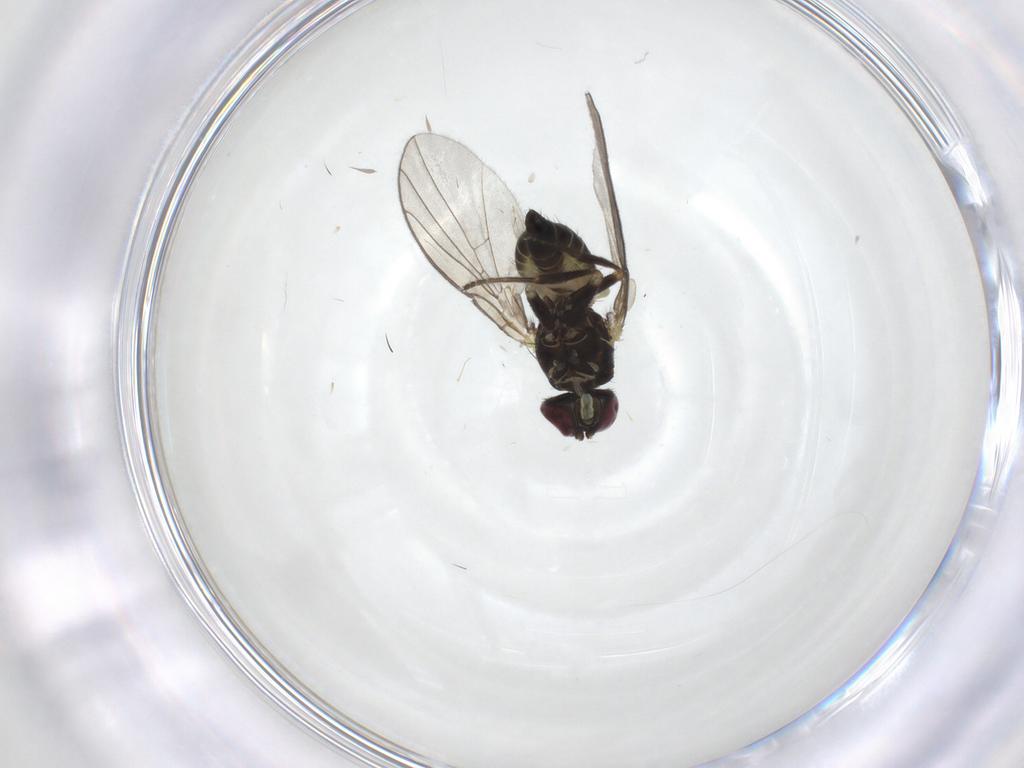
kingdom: Animalia
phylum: Arthropoda
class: Insecta
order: Diptera
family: Agromyzidae
